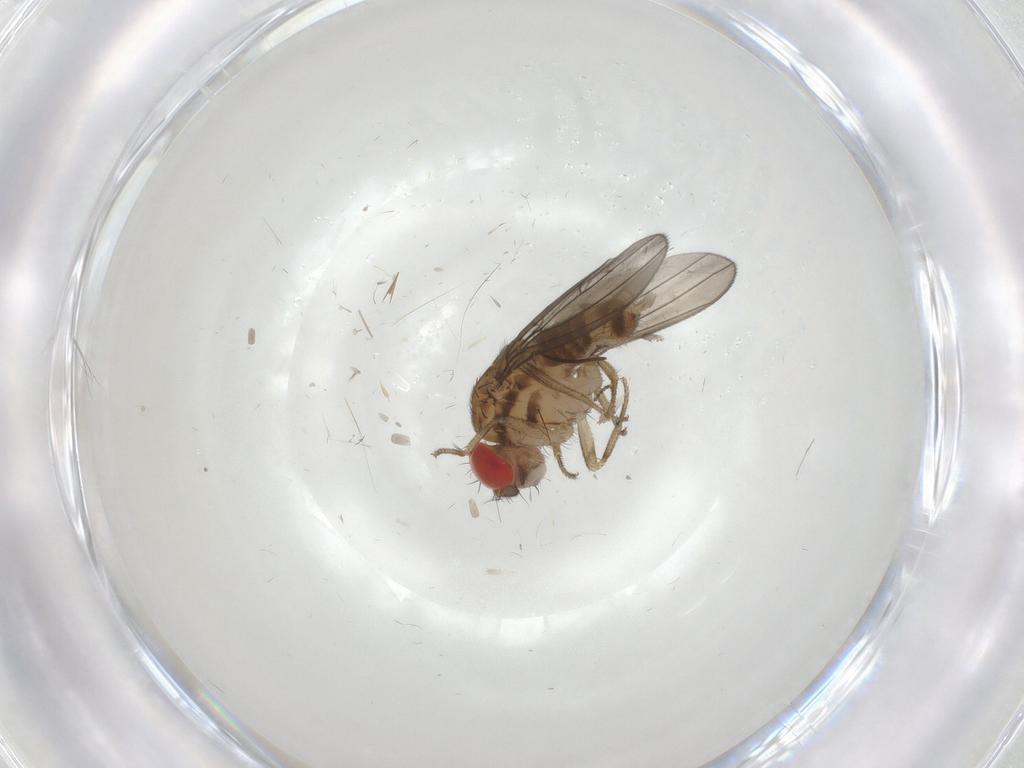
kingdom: Animalia
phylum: Arthropoda
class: Insecta
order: Diptera
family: Drosophilidae
